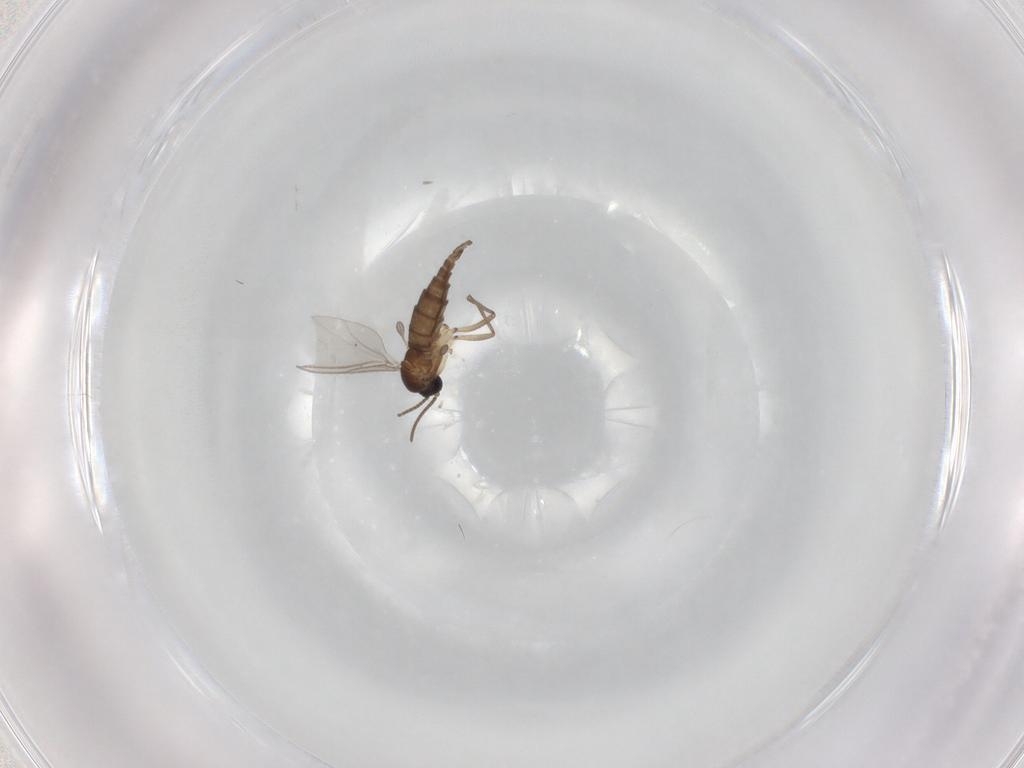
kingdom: Animalia
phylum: Arthropoda
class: Insecta
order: Diptera
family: Sciaridae
